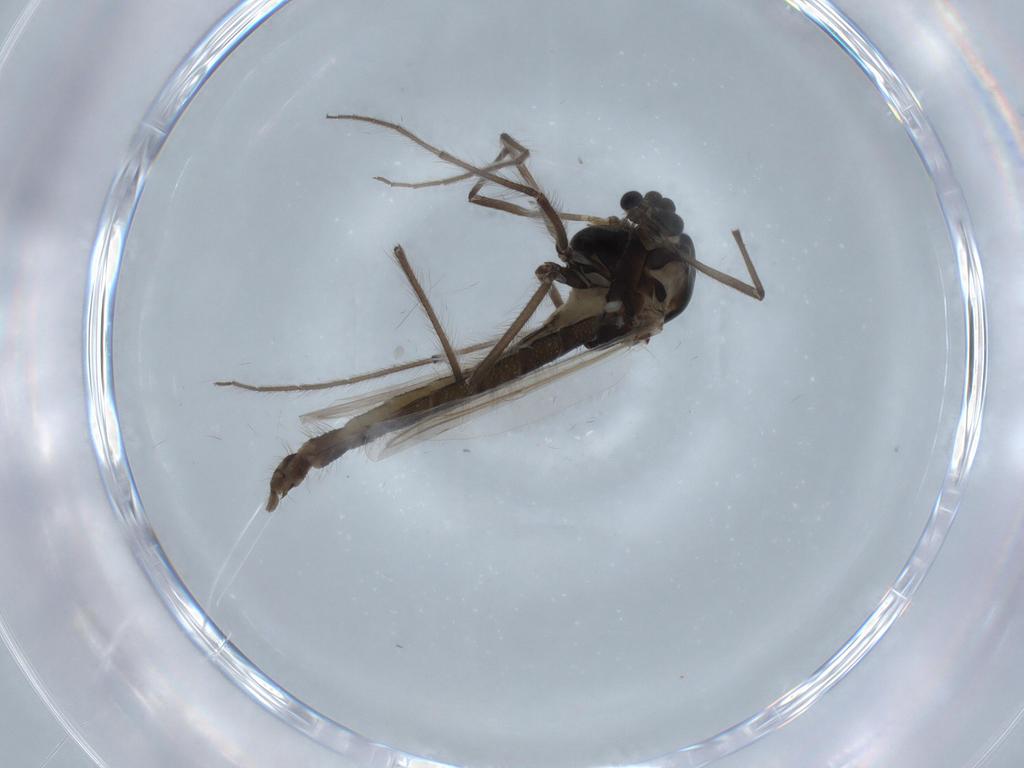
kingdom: Animalia
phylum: Arthropoda
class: Insecta
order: Diptera
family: Chironomidae
